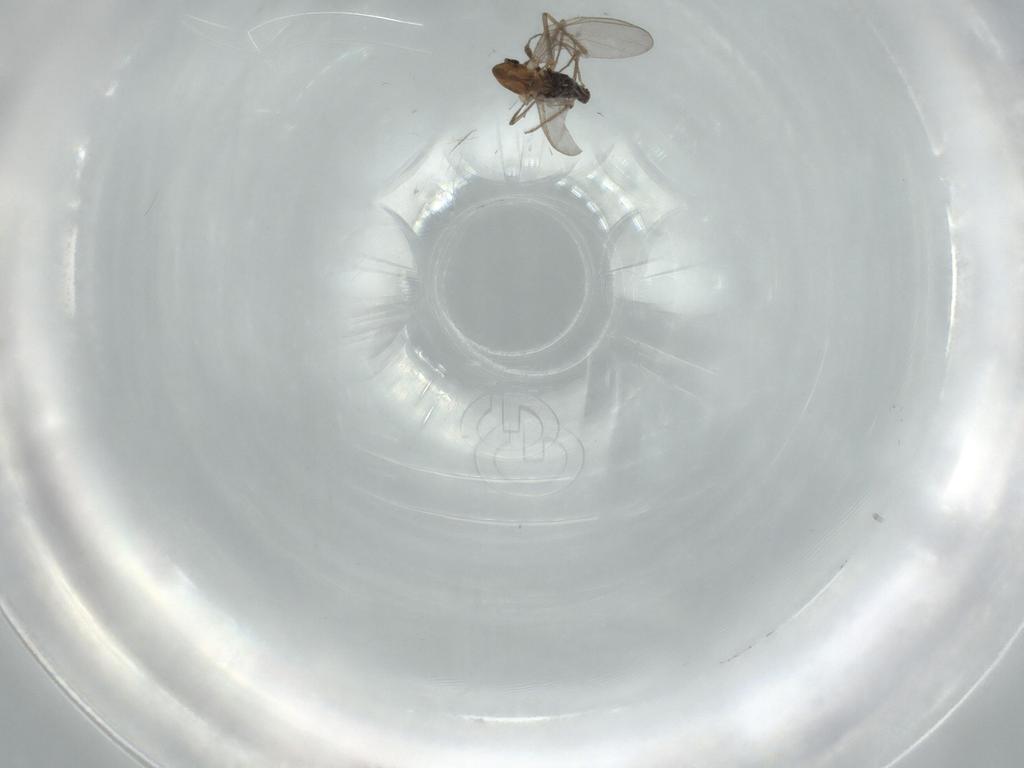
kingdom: Animalia
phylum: Arthropoda
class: Insecta
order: Diptera
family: Chironomidae
